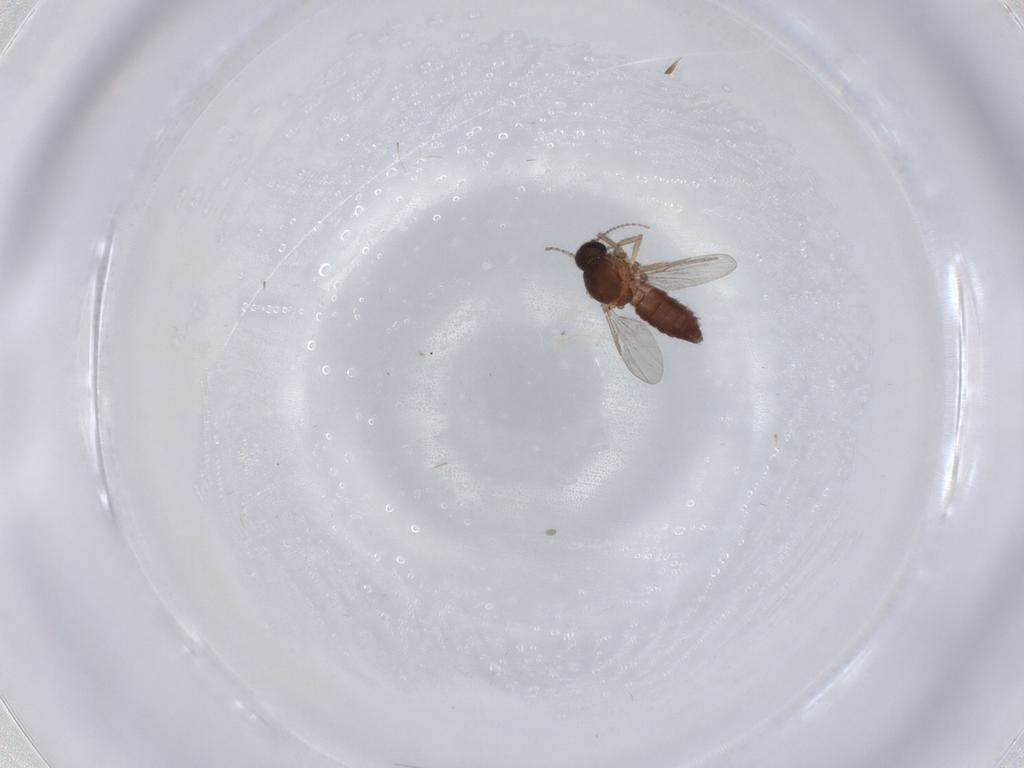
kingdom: Animalia
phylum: Arthropoda
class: Insecta
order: Diptera
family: Ceratopogonidae
